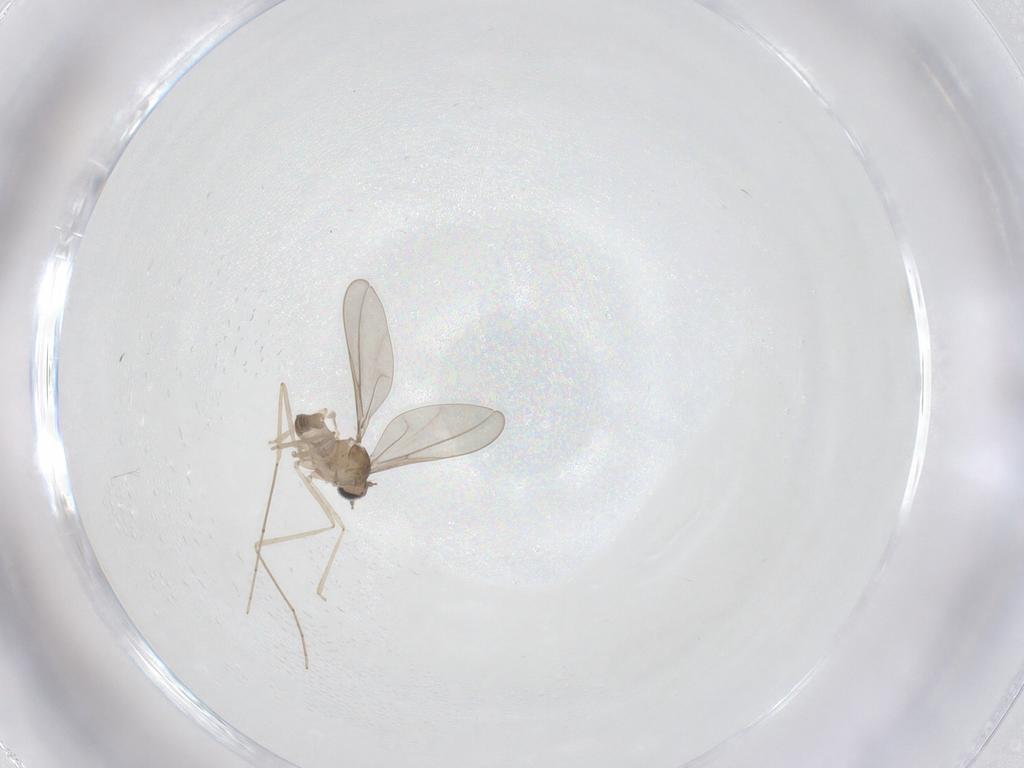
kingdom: Animalia
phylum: Arthropoda
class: Insecta
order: Diptera
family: Cecidomyiidae
